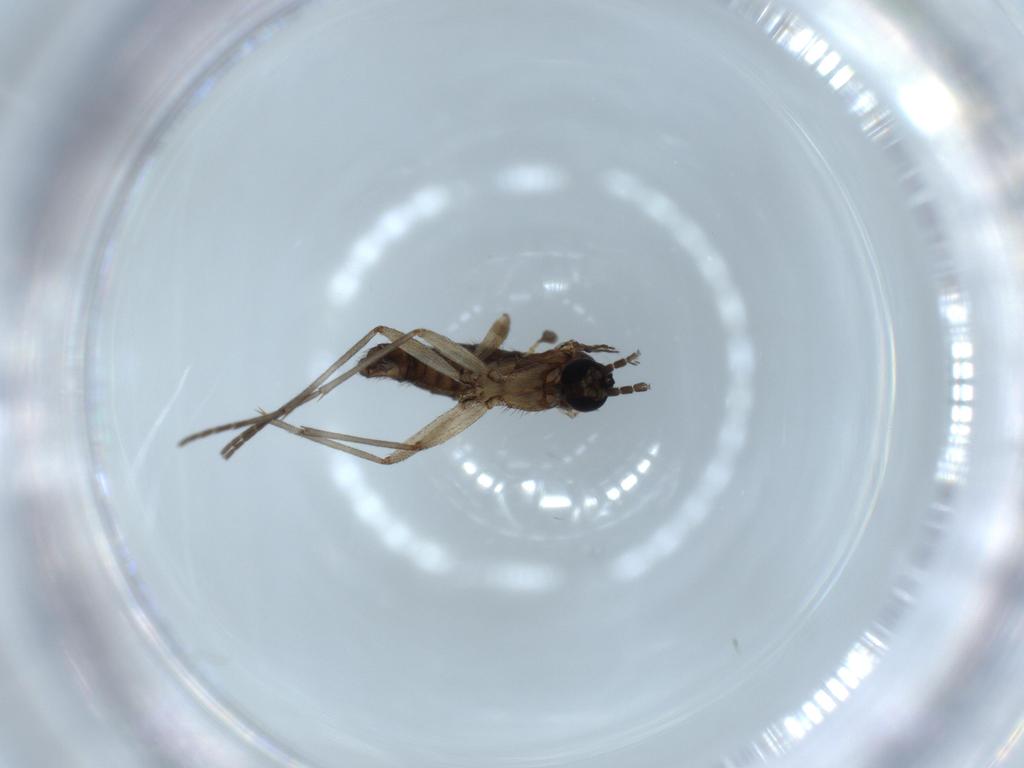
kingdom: Animalia
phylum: Arthropoda
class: Insecta
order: Diptera
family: Sciaridae
